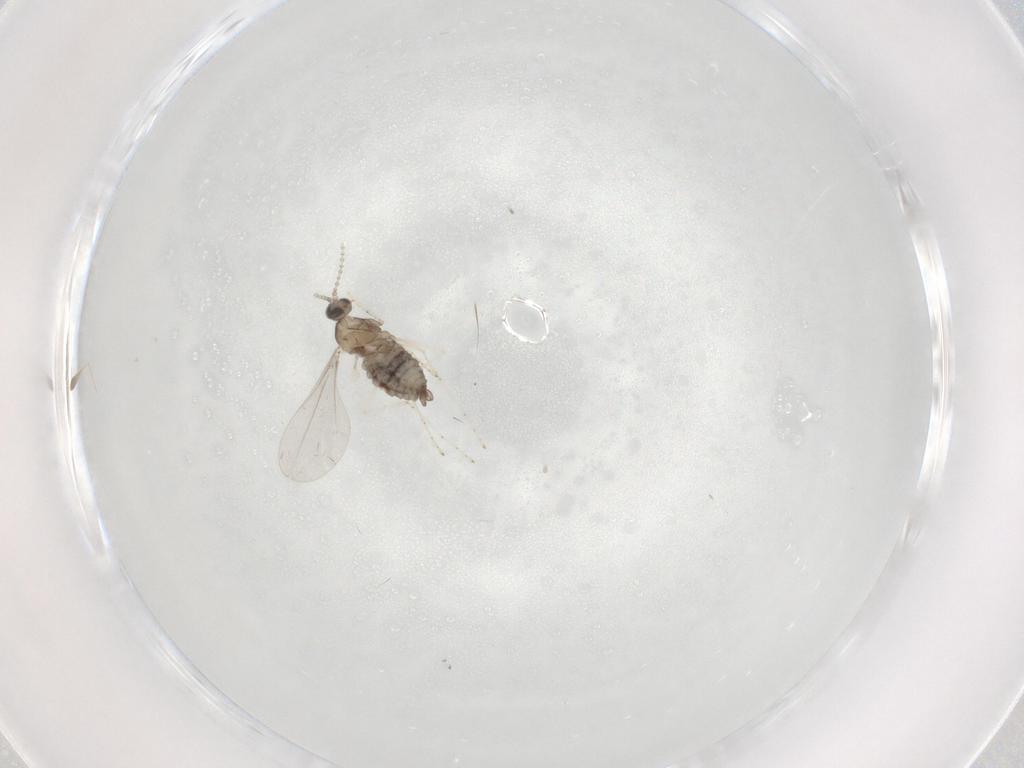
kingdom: Animalia
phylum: Arthropoda
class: Insecta
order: Diptera
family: Cecidomyiidae
